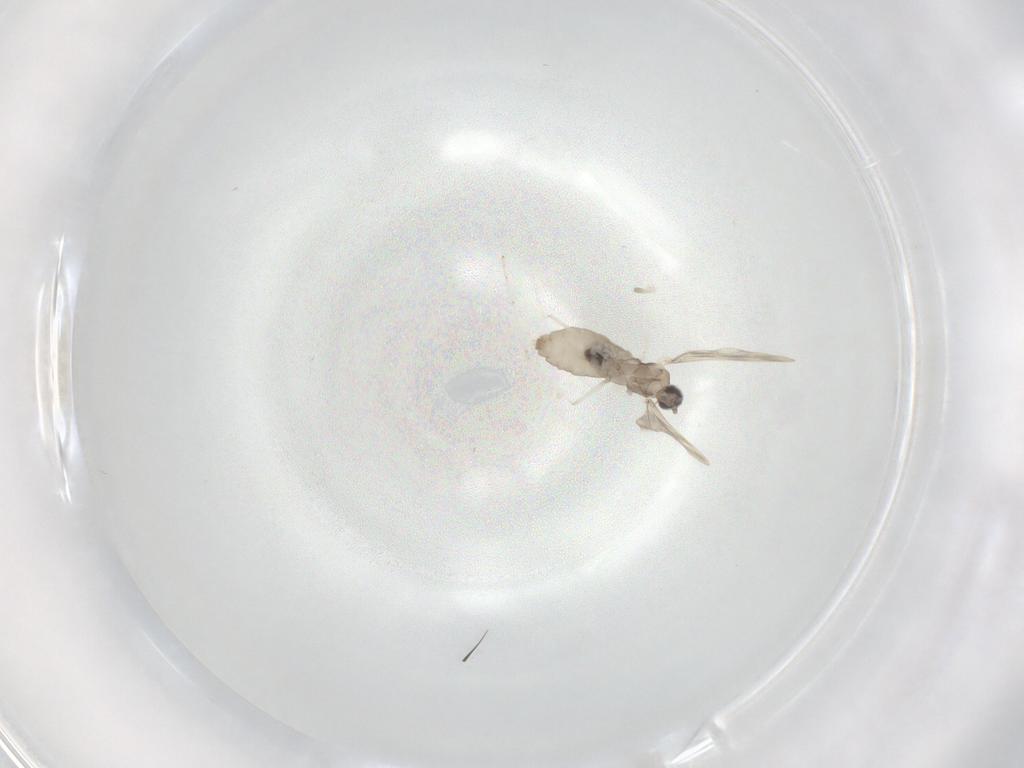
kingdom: Animalia
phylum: Arthropoda
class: Insecta
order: Diptera
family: Cecidomyiidae
